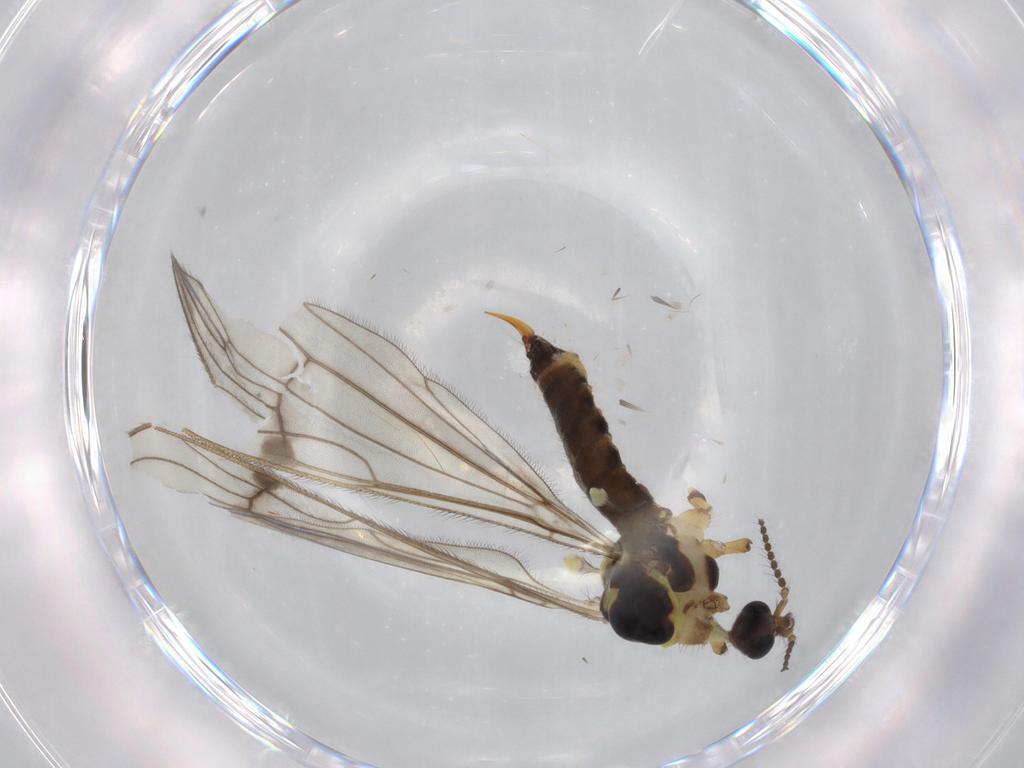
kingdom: Animalia
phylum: Arthropoda
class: Insecta
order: Diptera
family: Limoniidae
